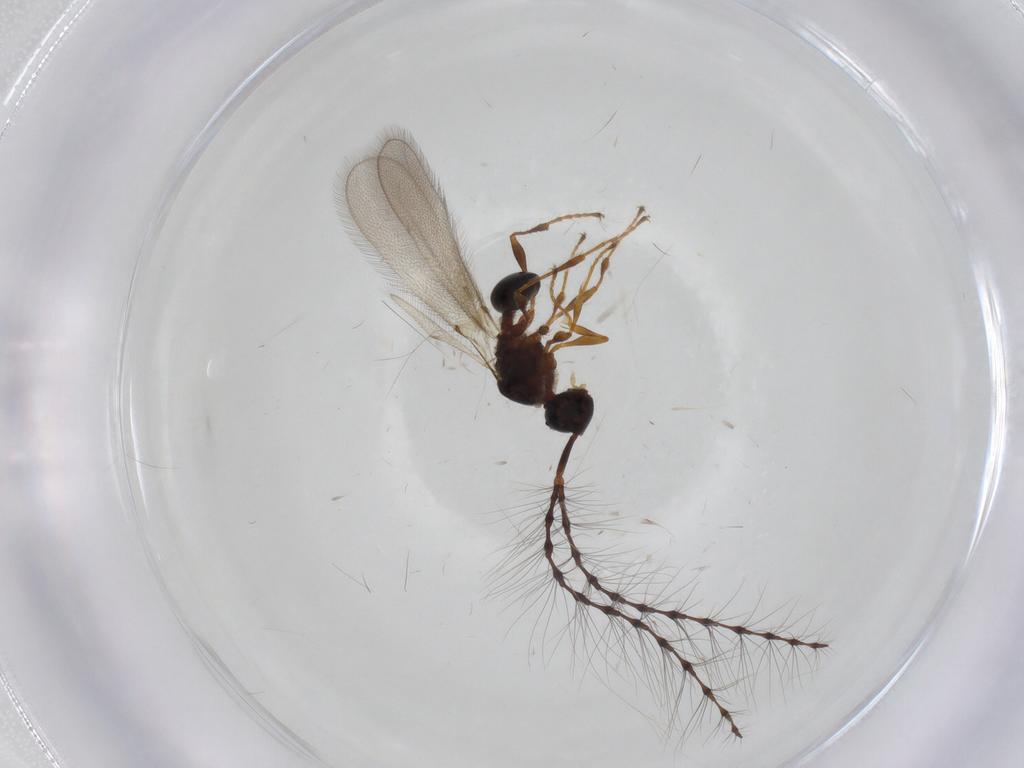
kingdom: Animalia
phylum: Arthropoda
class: Insecta
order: Hymenoptera
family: Diapriidae
